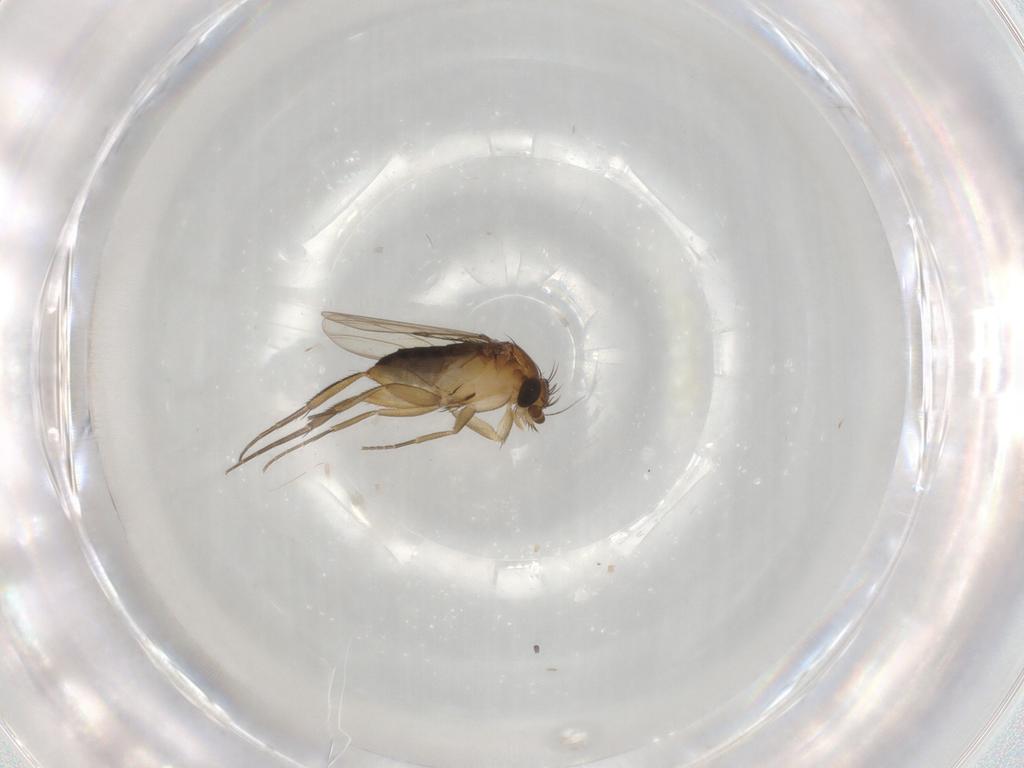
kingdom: Animalia
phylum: Arthropoda
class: Insecta
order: Diptera
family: Phoridae
